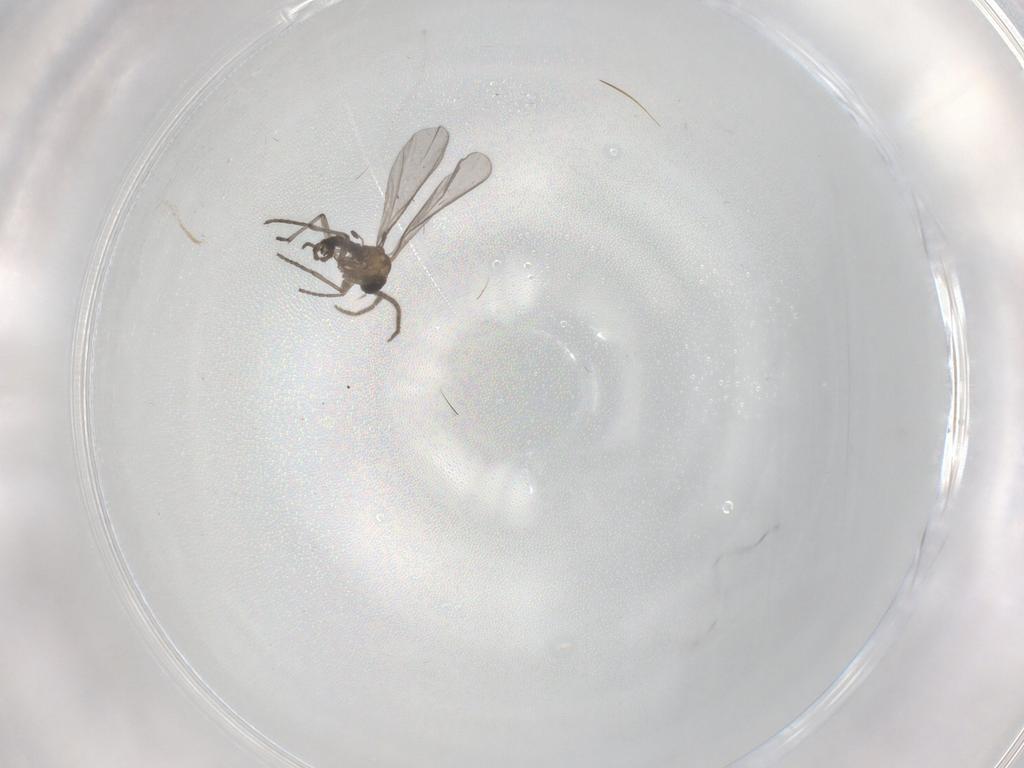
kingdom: Animalia
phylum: Arthropoda
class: Insecta
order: Diptera
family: Sciaridae
